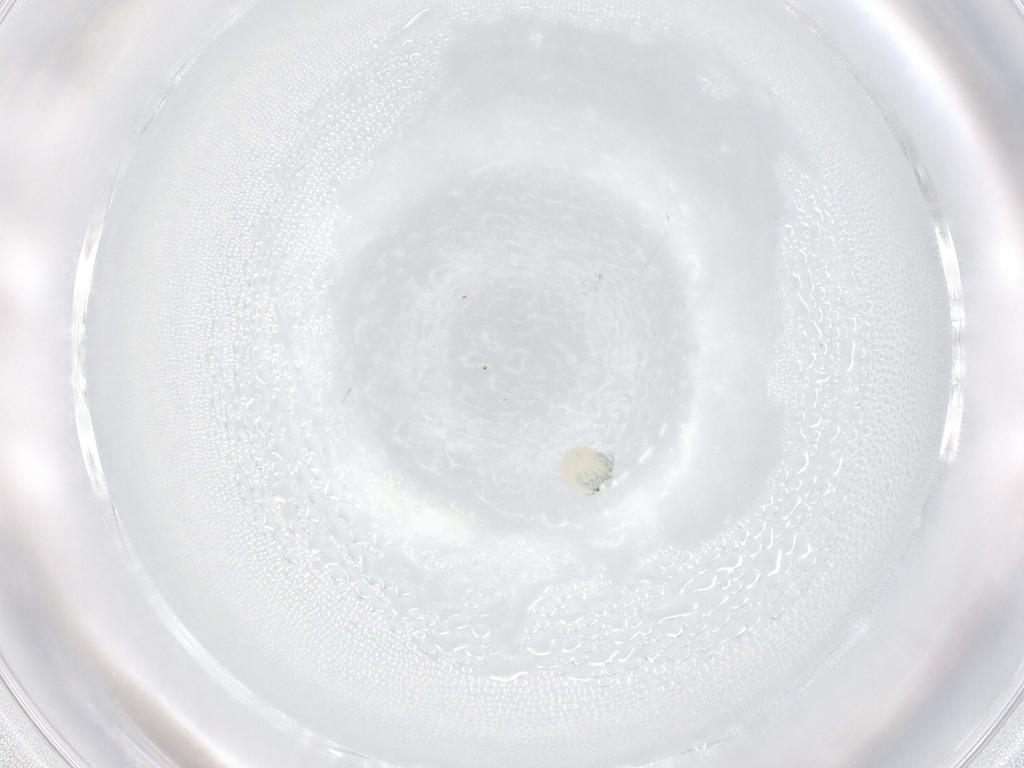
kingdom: Animalia
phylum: Arthropoda
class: Arachnida
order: Trombidiformes
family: Arrenuridae
